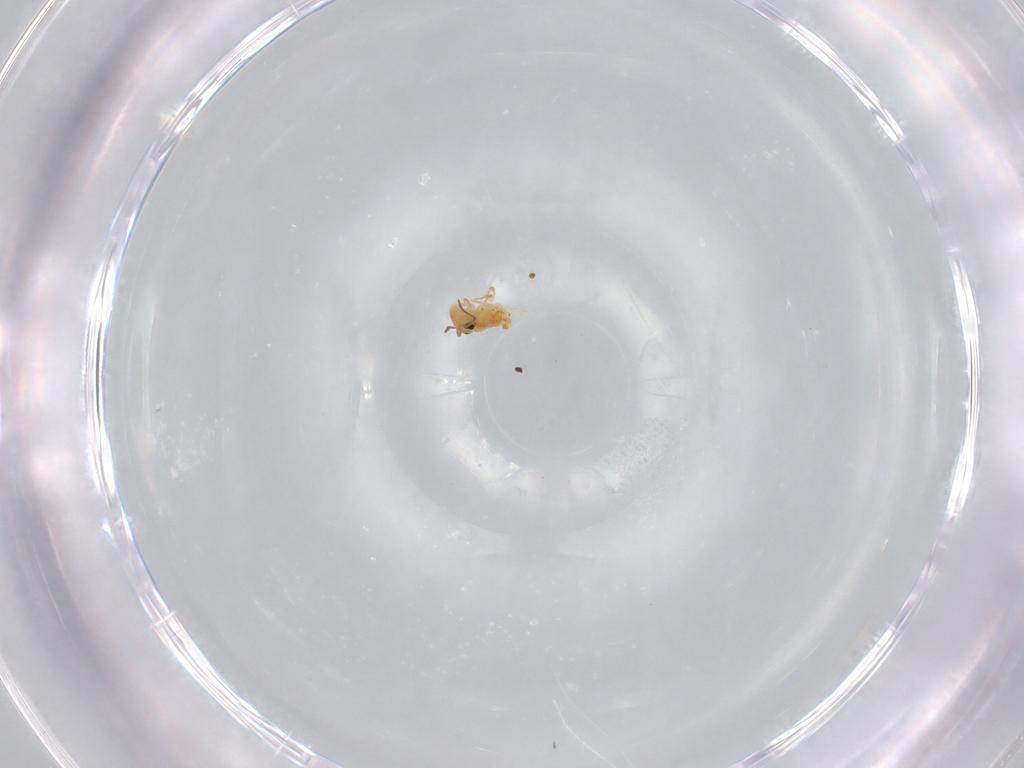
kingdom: Animalia
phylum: Arthropoda
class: Collembola
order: Symphypleona
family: Bourletiellidae
